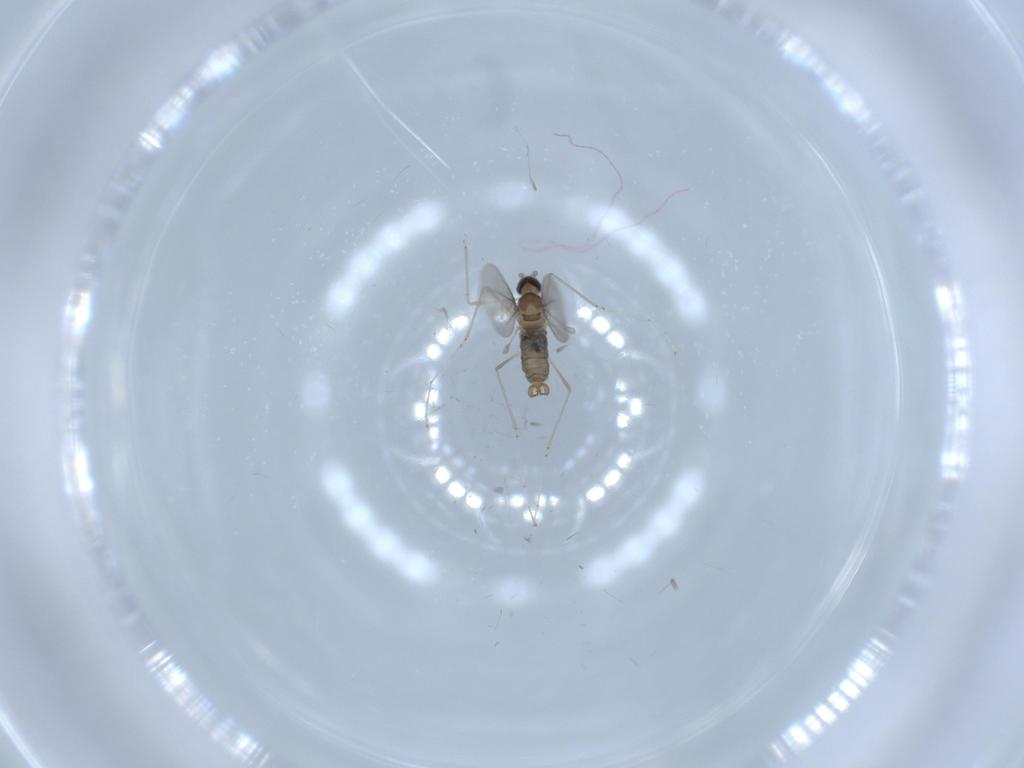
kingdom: Animalia
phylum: Arthropoda
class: Insecta
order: Diptera
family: Cecidomyiidae
